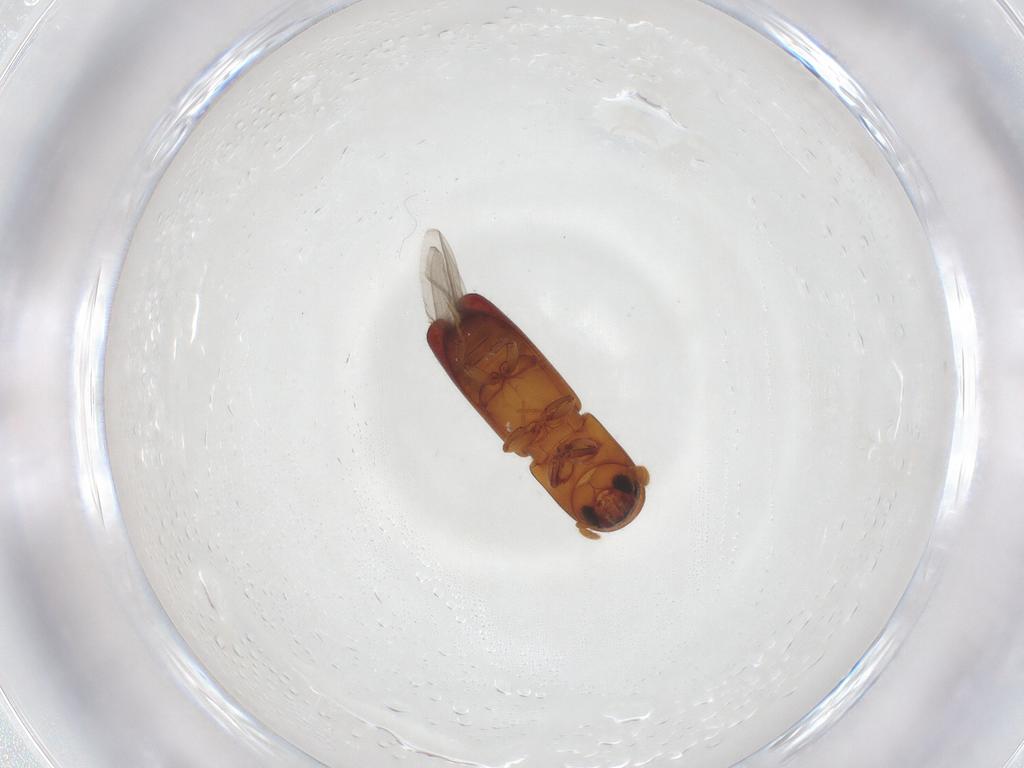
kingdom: Animalia
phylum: Arthropoda
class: Insecta
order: Coleoptera
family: Curculionidae
